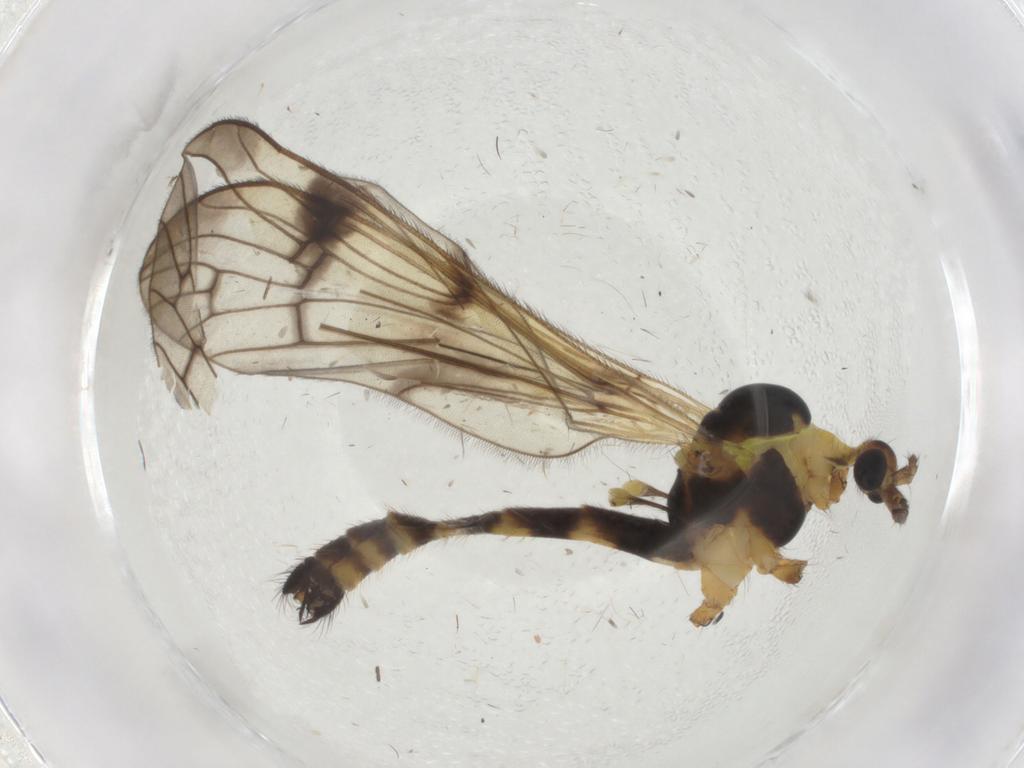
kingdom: Animalia
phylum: Arthropoda
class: Insecta
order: Diptera
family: Limoniidae
